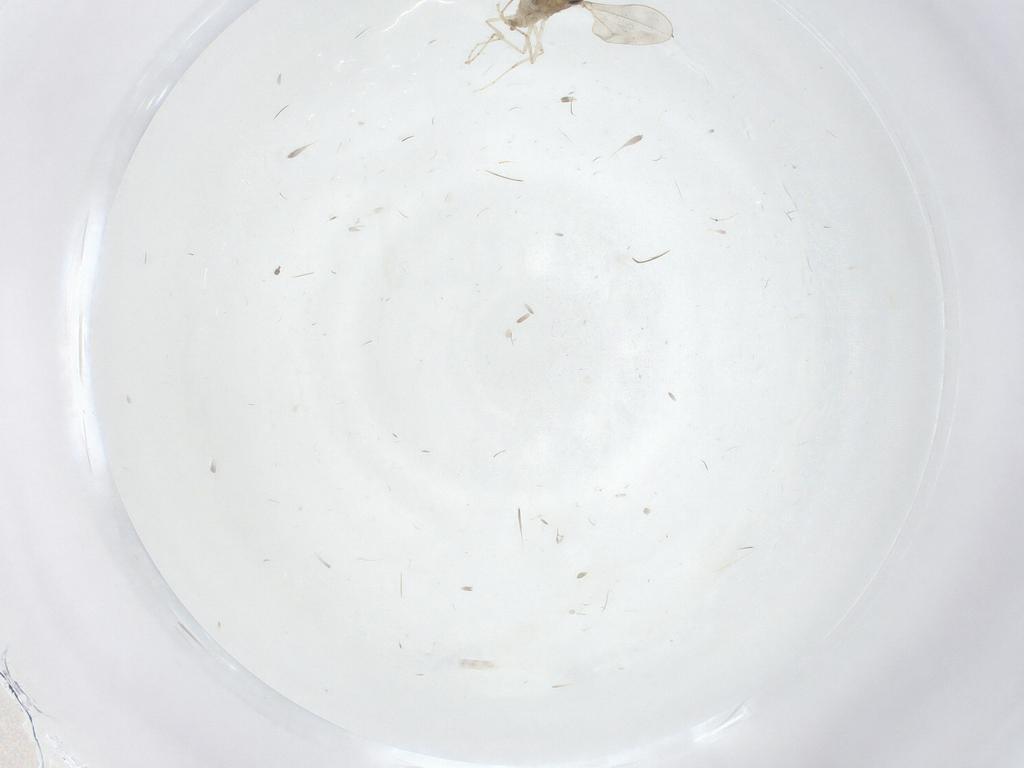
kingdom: Animalia
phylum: Arthropoda
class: Insecta
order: Diptera
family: Cecidomyiidae
